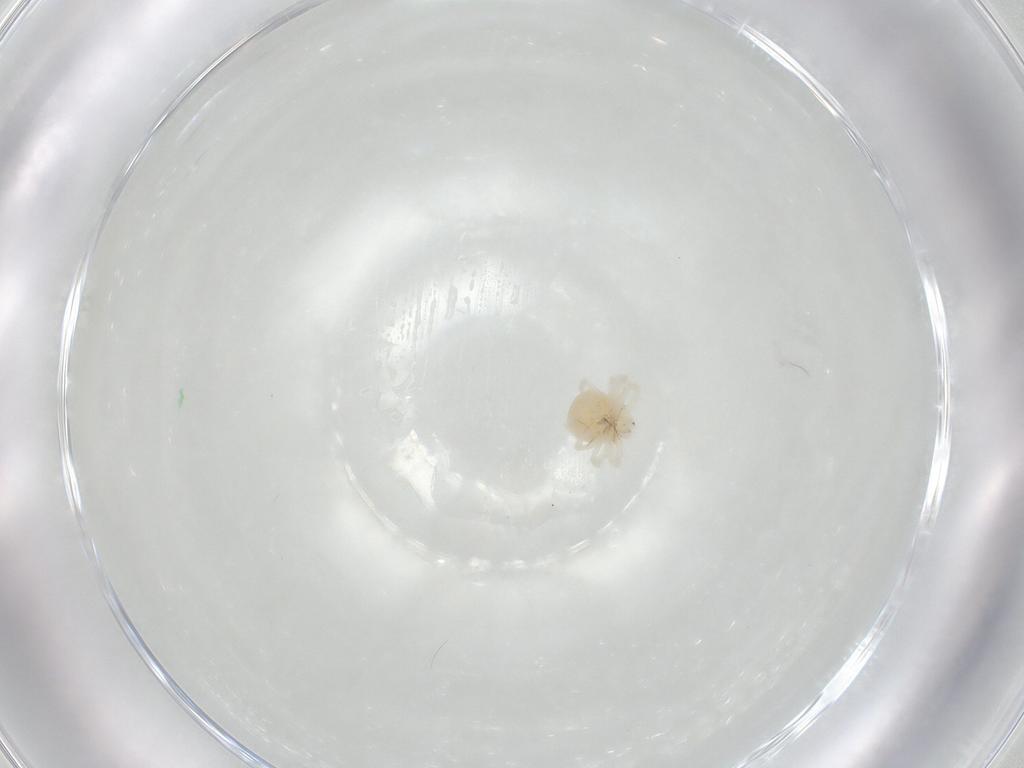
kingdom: Animalia
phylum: Arthropoda
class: Arachnida
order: Trombidiformes
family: Anystidae
